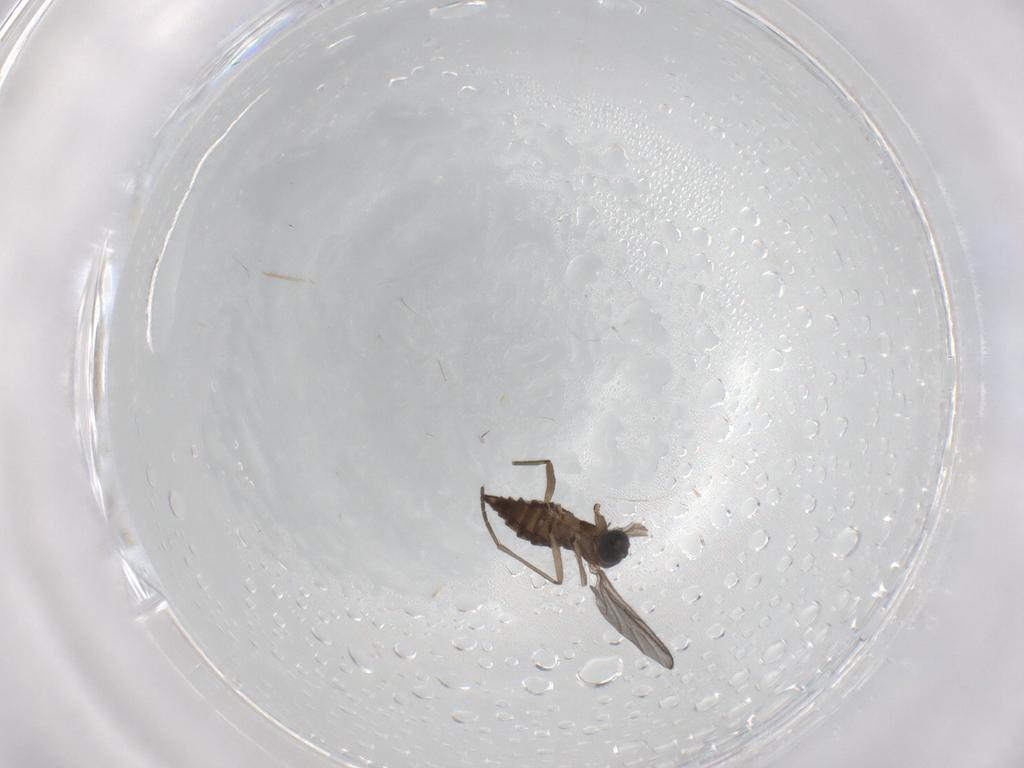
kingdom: Animalia
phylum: Arthropoda
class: Insecta
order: Diptera
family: Sciaridae
